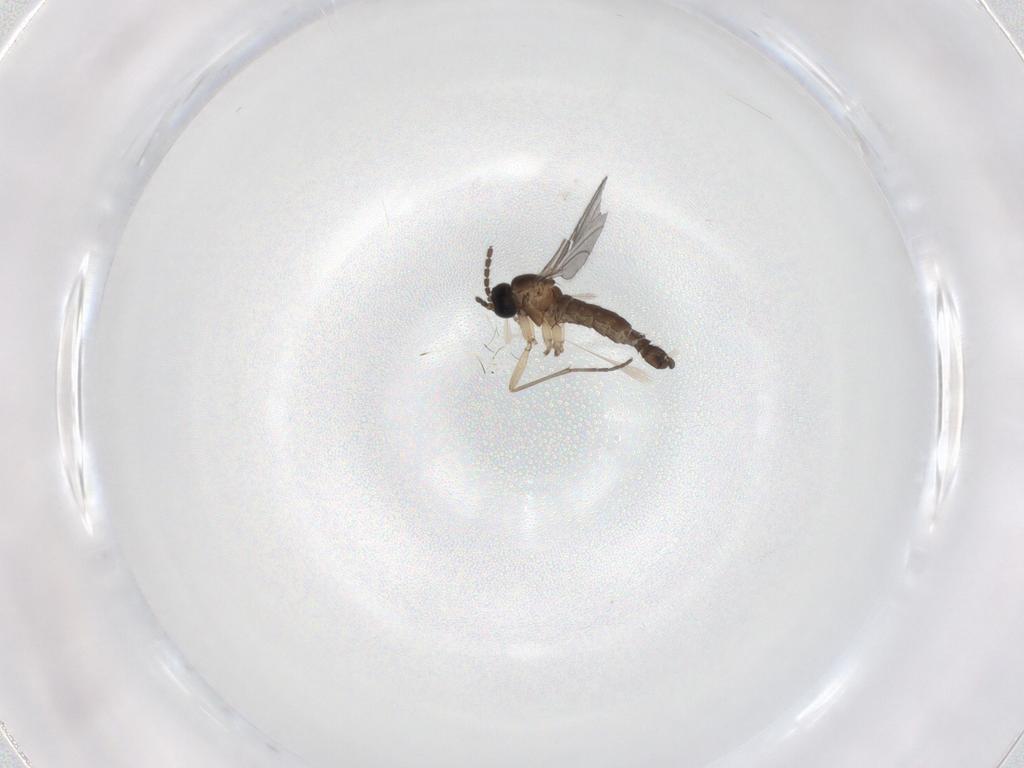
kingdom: Animalia
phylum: Arthropoda
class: Insecta
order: Diptera
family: Sciaridae
